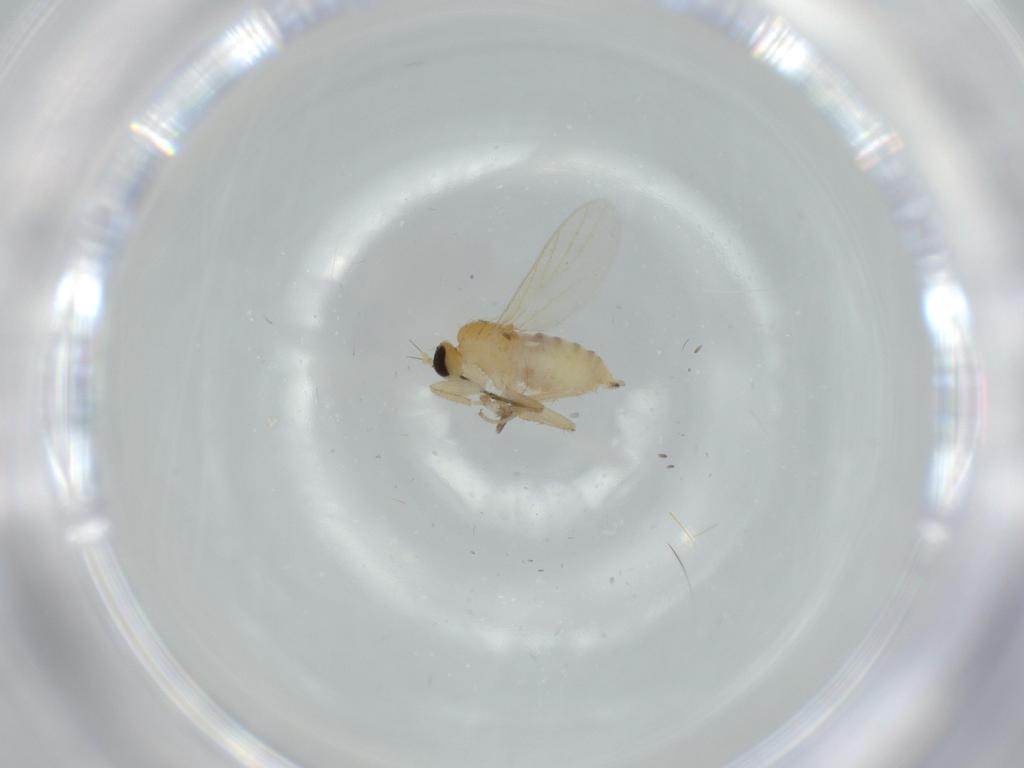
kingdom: Animalia
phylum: Arthropoda
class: Insecta
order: Diptera
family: Hybotidae
